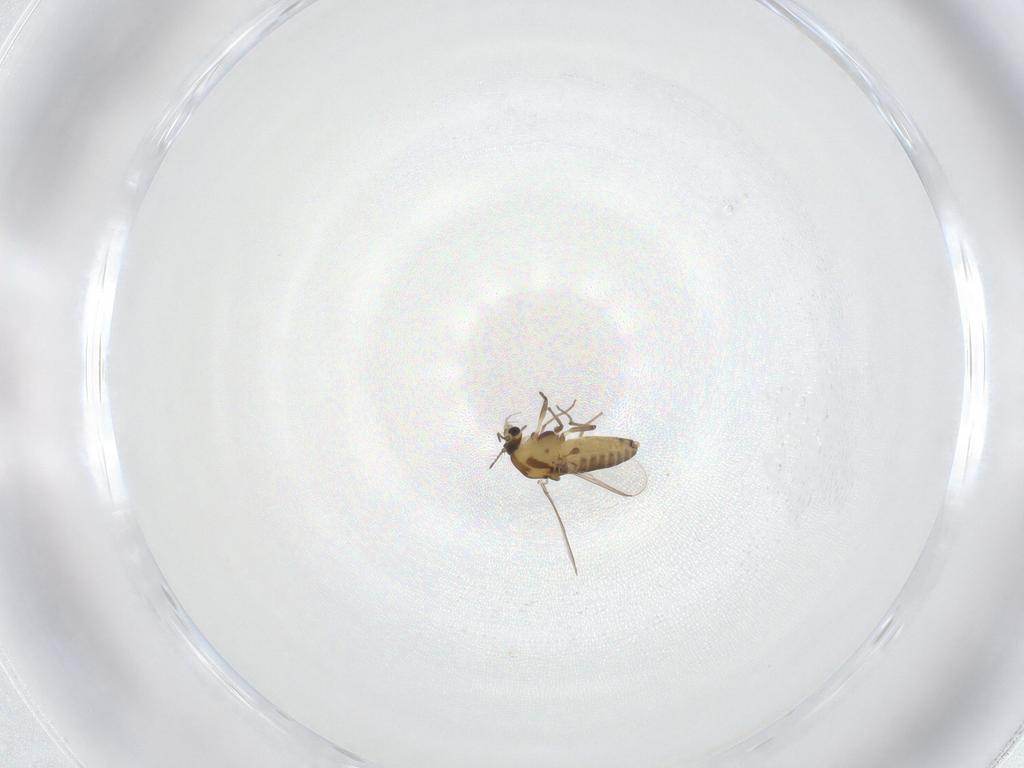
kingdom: Animalia
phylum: Arthropoda
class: Insecta
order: Diptera
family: Chironomidae
